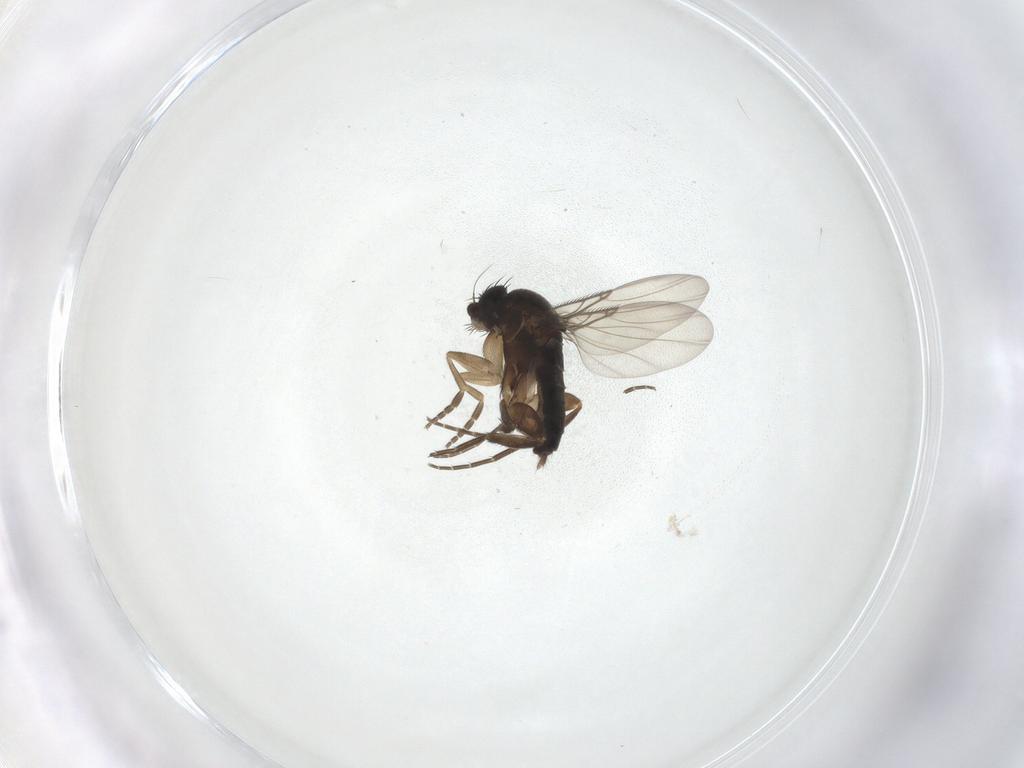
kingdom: Animalia
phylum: Arthropoda
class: Insecta
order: Diptera
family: Phoridae
